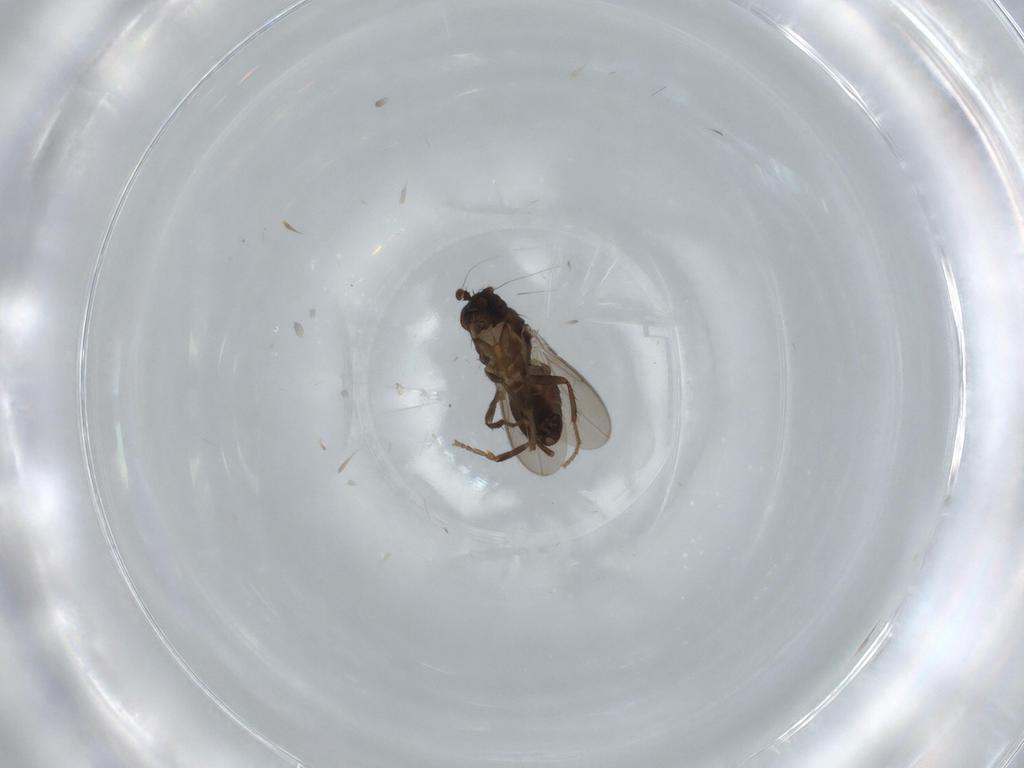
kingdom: Animalia
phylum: Arthropoda
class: Insecta
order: Diptera
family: Sphaeroceridae
